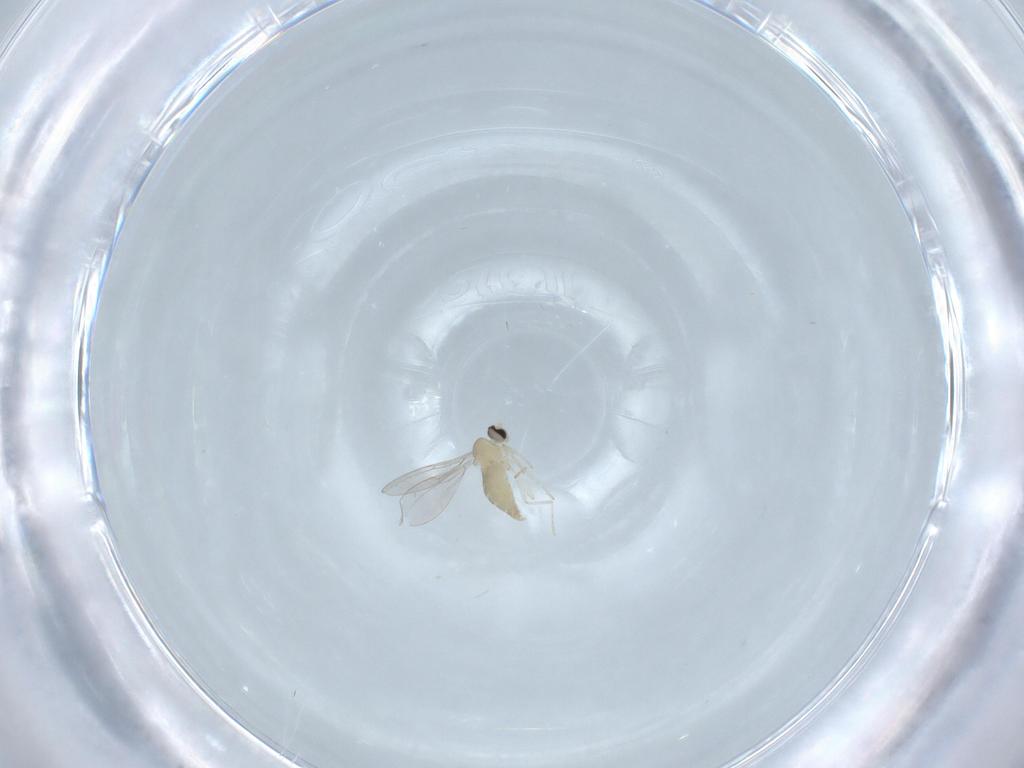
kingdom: Animalia
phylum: Arthropoda
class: Insecta
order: Diptera
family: Cecidomyiidae
